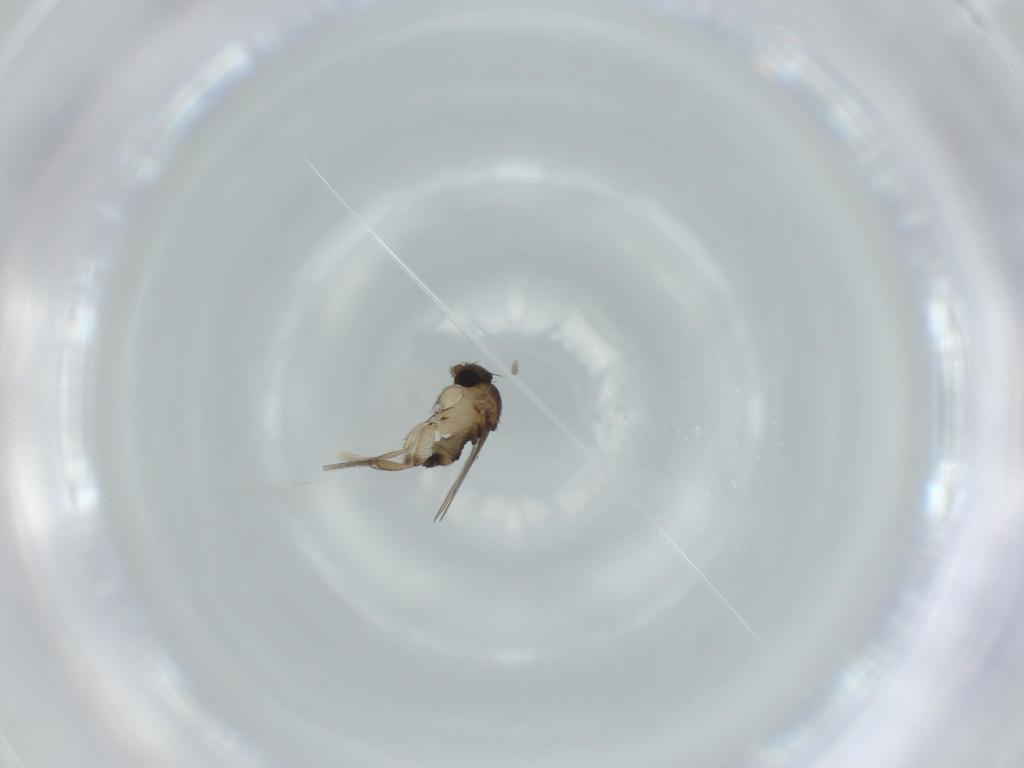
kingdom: Animalia
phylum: Arthropoda
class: Insecta
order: Diptera
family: Phoridae
